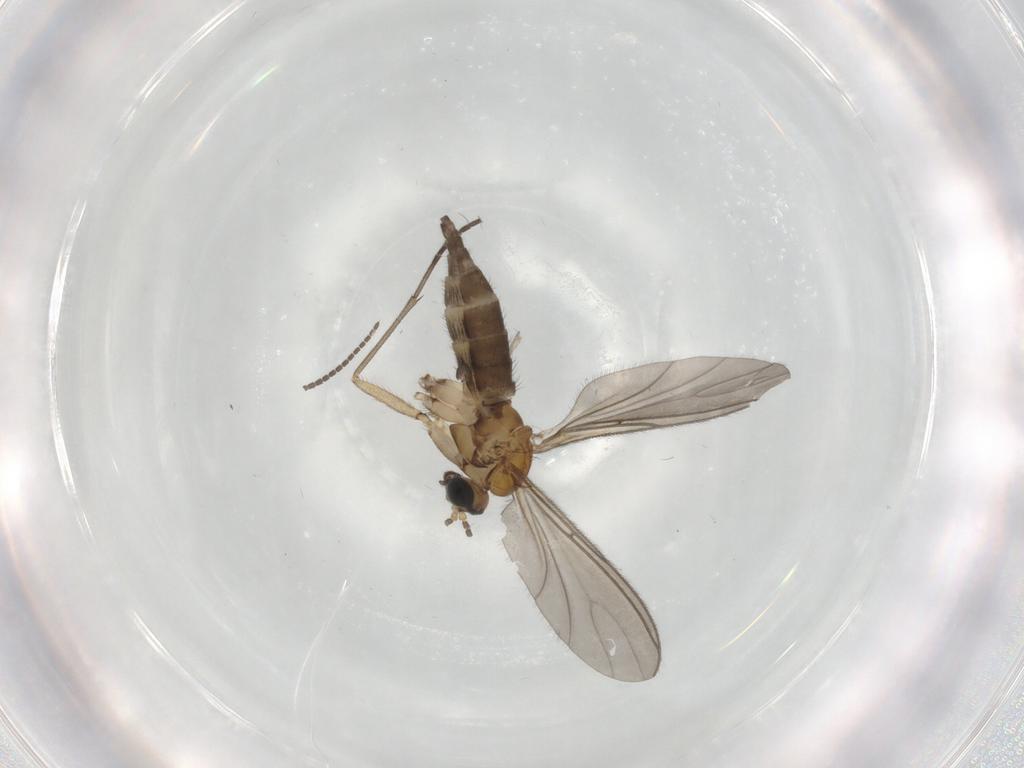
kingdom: Animalia
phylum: Arthropoda
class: Insecta
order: Diptera
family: Sciaridae
